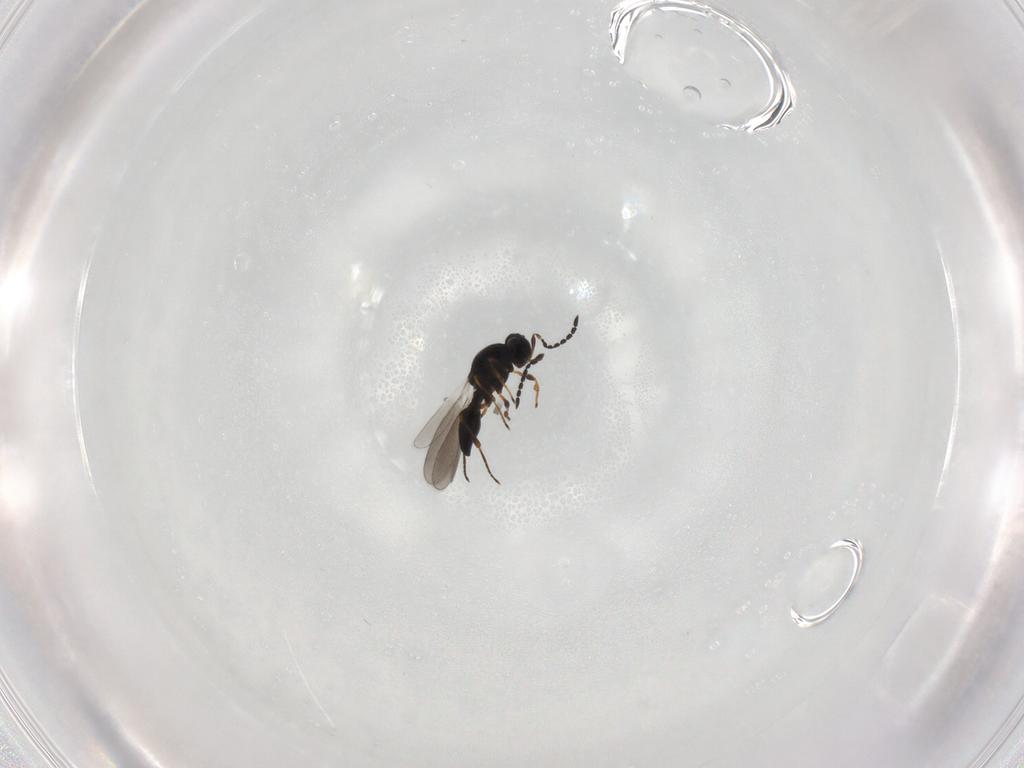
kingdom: Animalia
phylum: Arthropoda
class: Insecta
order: Hymenoptera
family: Platygastridae
